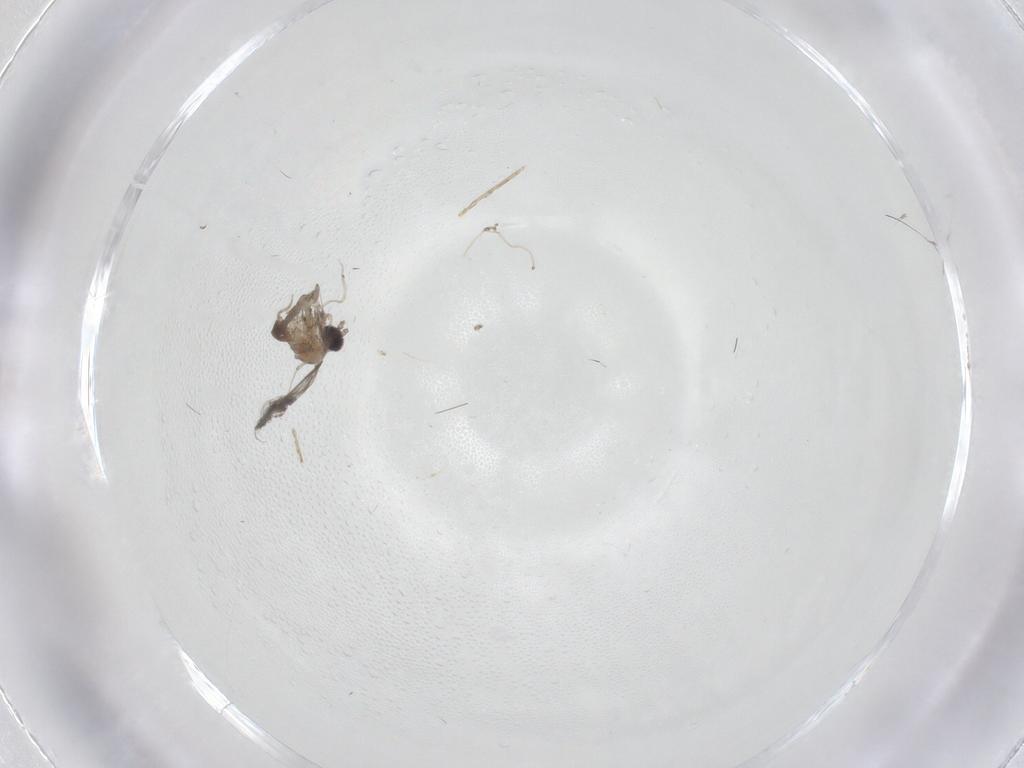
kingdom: Animalia
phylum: Arthropoda
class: Insecta
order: Diptera
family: Cecidomyiidae
